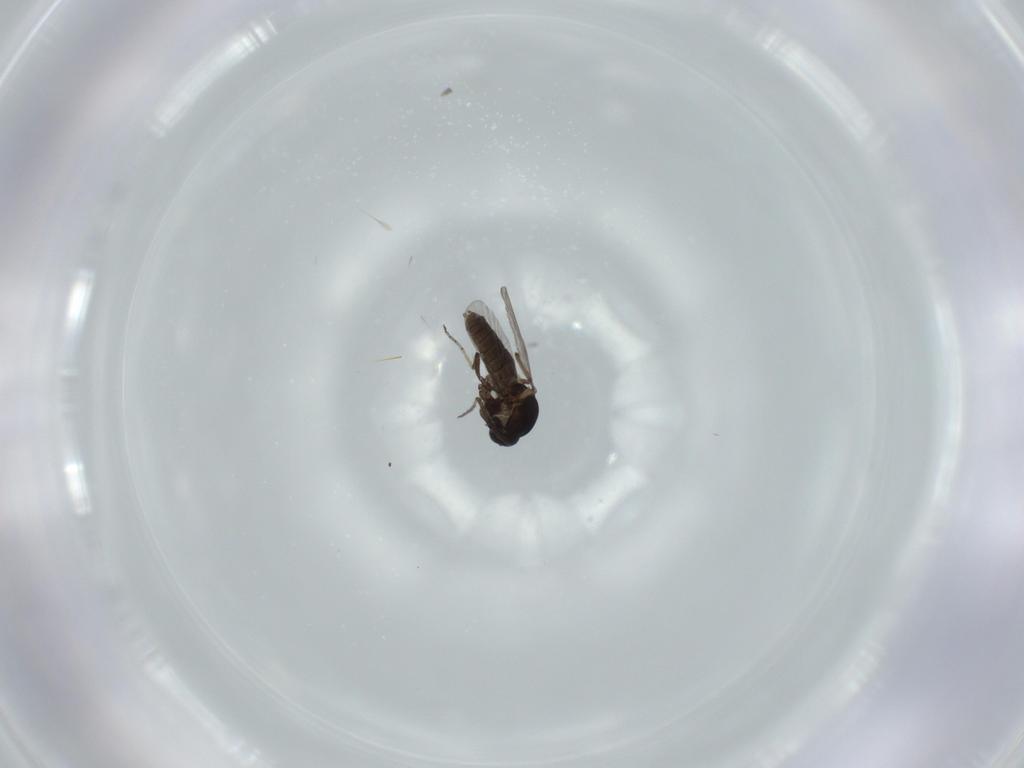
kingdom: Animalia
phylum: Arthropoda
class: Insecta
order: Diptera
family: Ceratopogonidae
